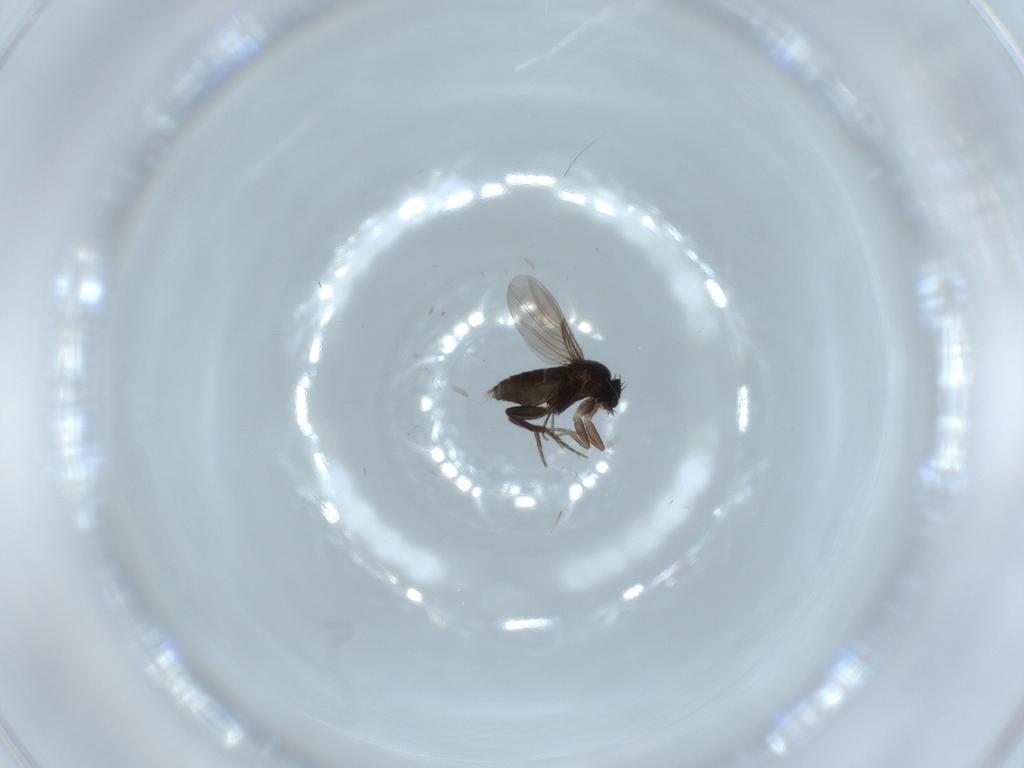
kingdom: Animalia
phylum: Arthropoda
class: Insecta
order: Diptera
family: Phoridae
